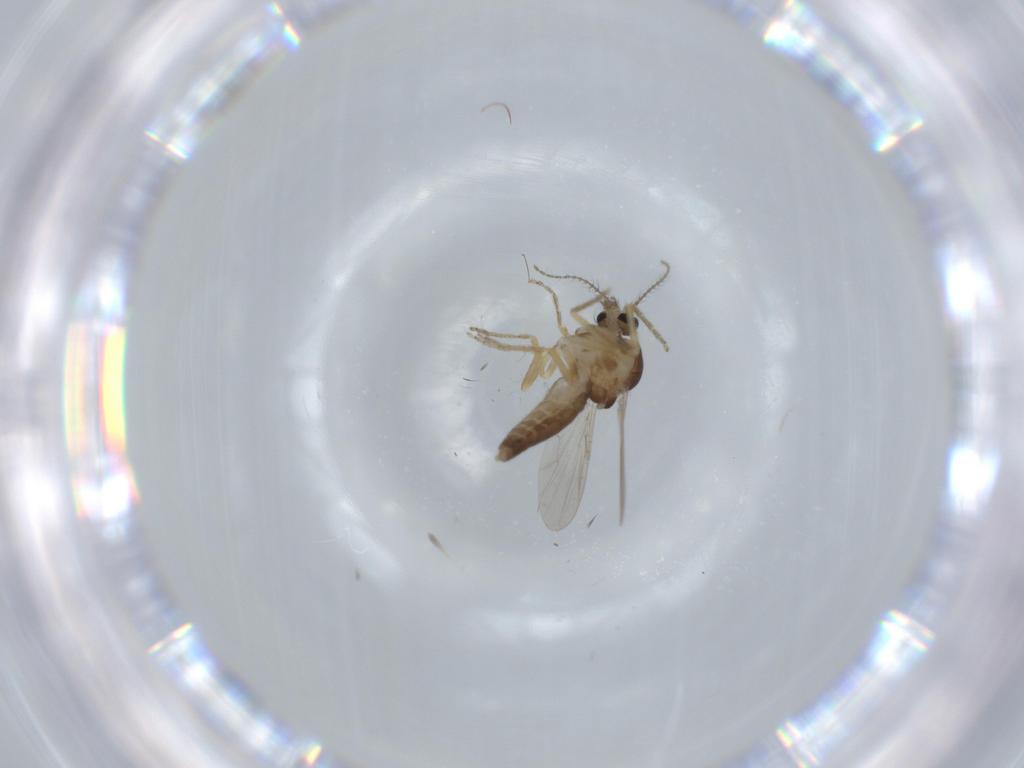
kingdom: Animalia
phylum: Arthropoda
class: Insecta
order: Diptera
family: Ceratopogonidae
